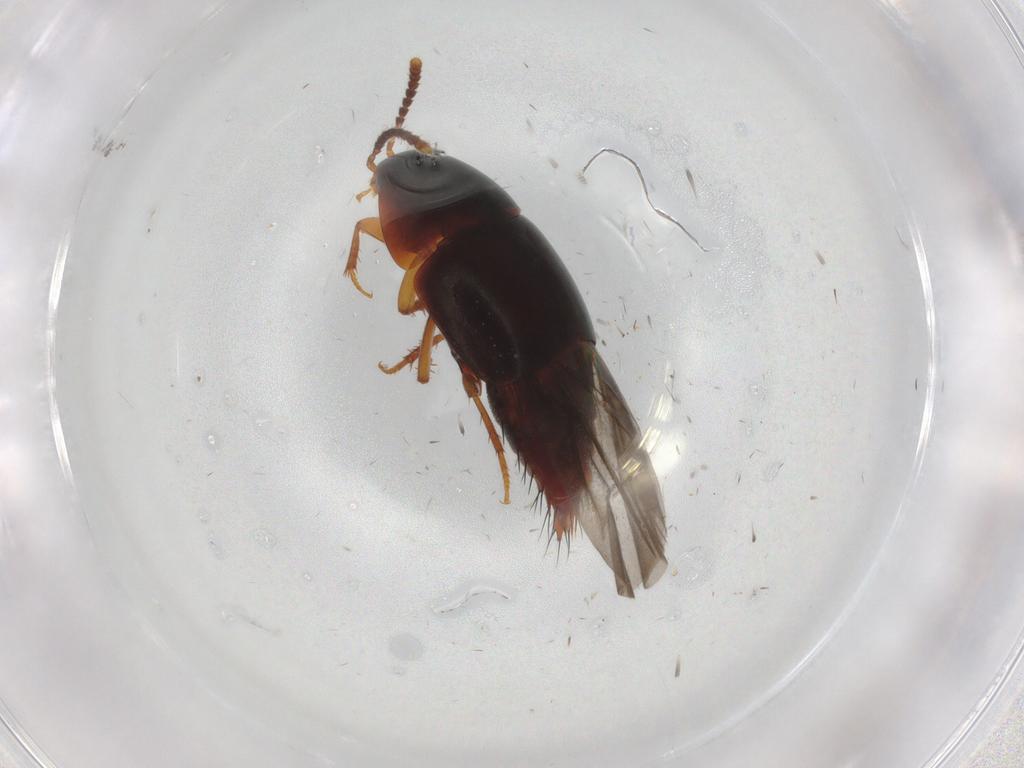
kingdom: Animalia
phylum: Arthropoda
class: Insecta
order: Coleoptera
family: Staphylinidae
